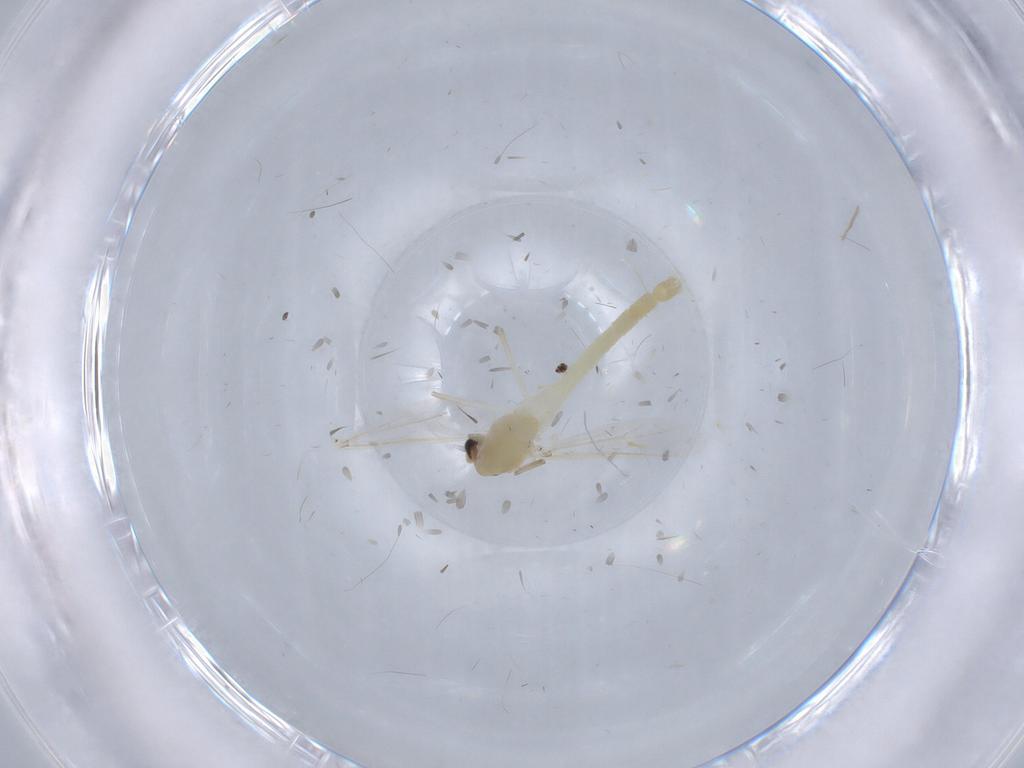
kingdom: Animalia
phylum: Arthropoda
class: Insecta
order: Diptera
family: Chironomidae
